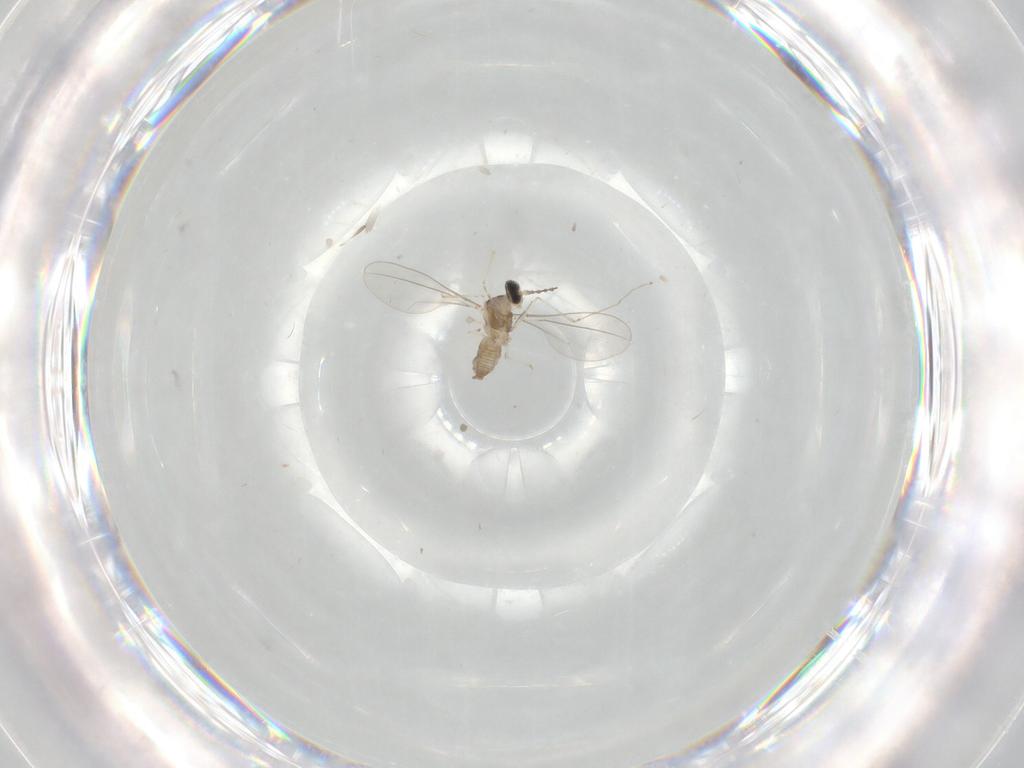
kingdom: Animalia
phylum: Arthropoda
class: Insecta
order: Diptera
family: Cecidomyiidae
